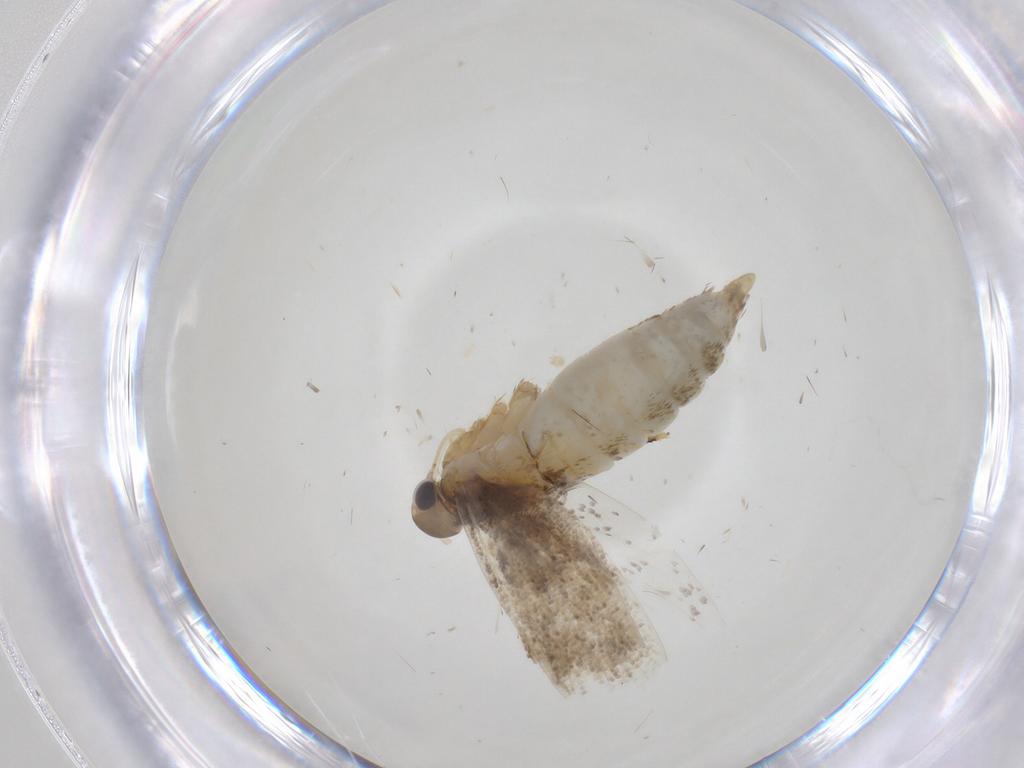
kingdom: Animalia
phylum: Arthropoda
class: Insecta
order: Lepidoptera
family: Oecophoridae
